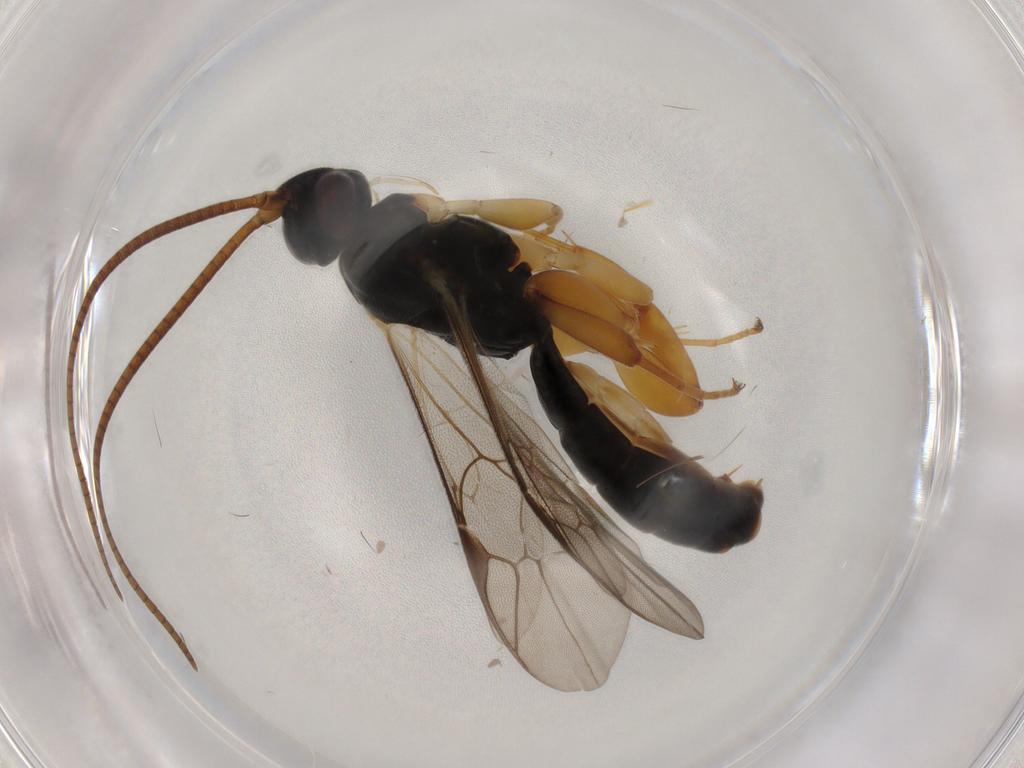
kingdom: Animalia
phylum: Arthropoda
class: Insecta
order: Hymenoptera
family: Ichneumonidae
